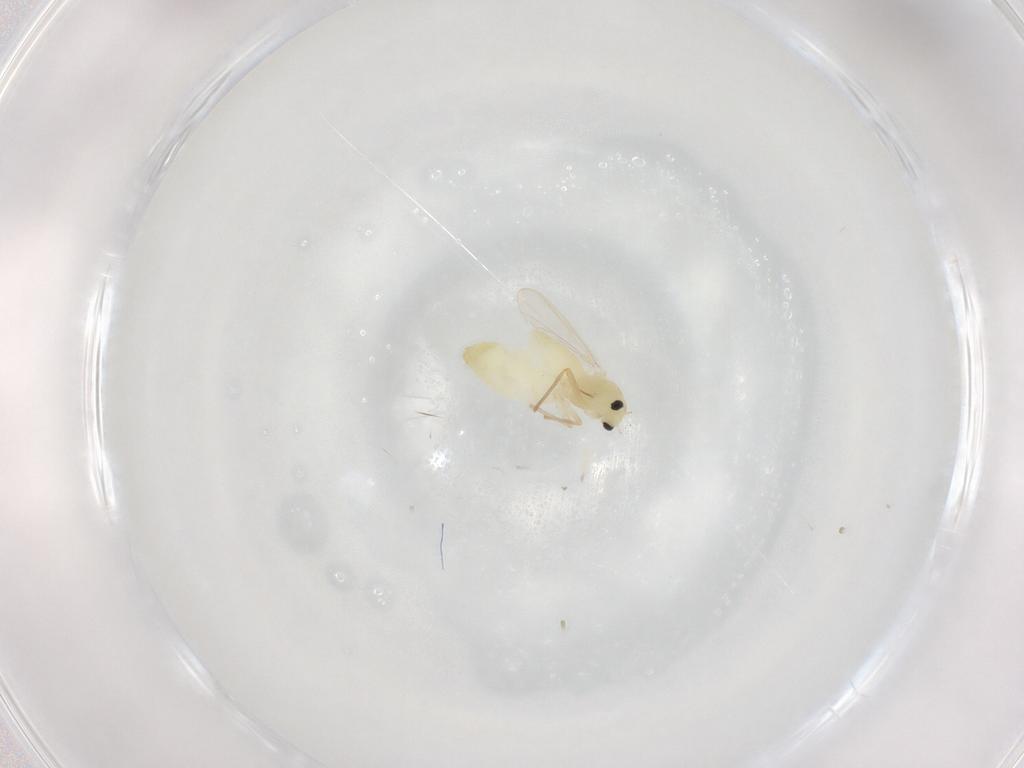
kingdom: Animalia
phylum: Arthropoda
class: Insecta
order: Diptera
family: Chironomidae
